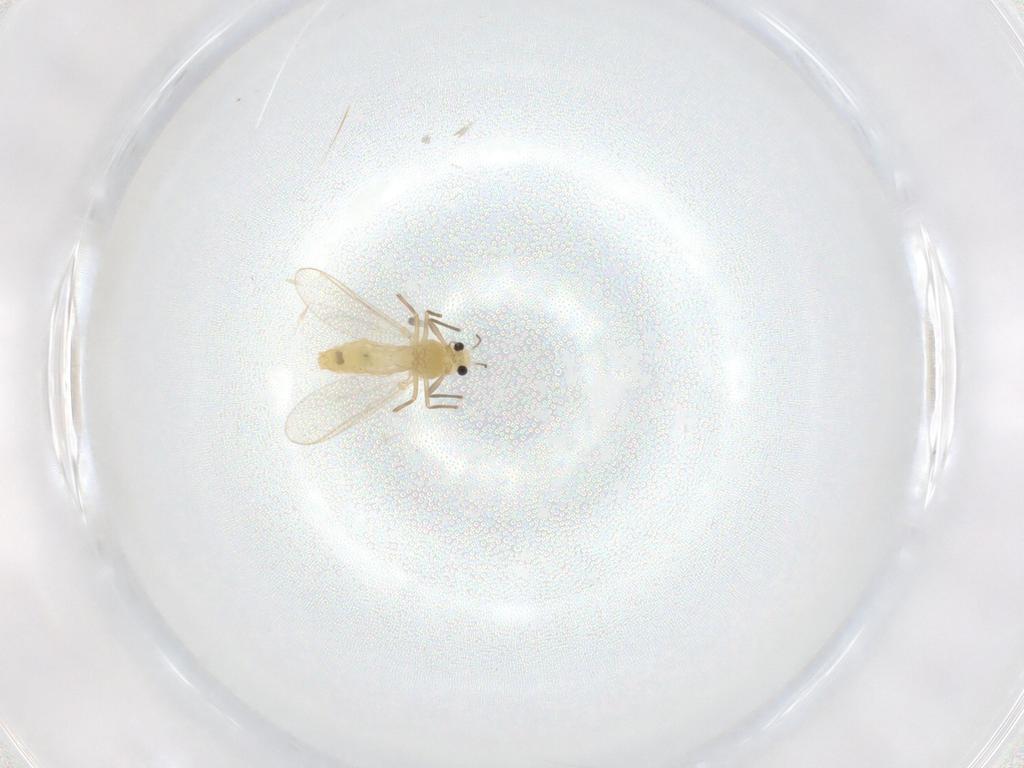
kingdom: Animalia
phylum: Arthropoda
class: Insecta
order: Diptera
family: Chironomidae
